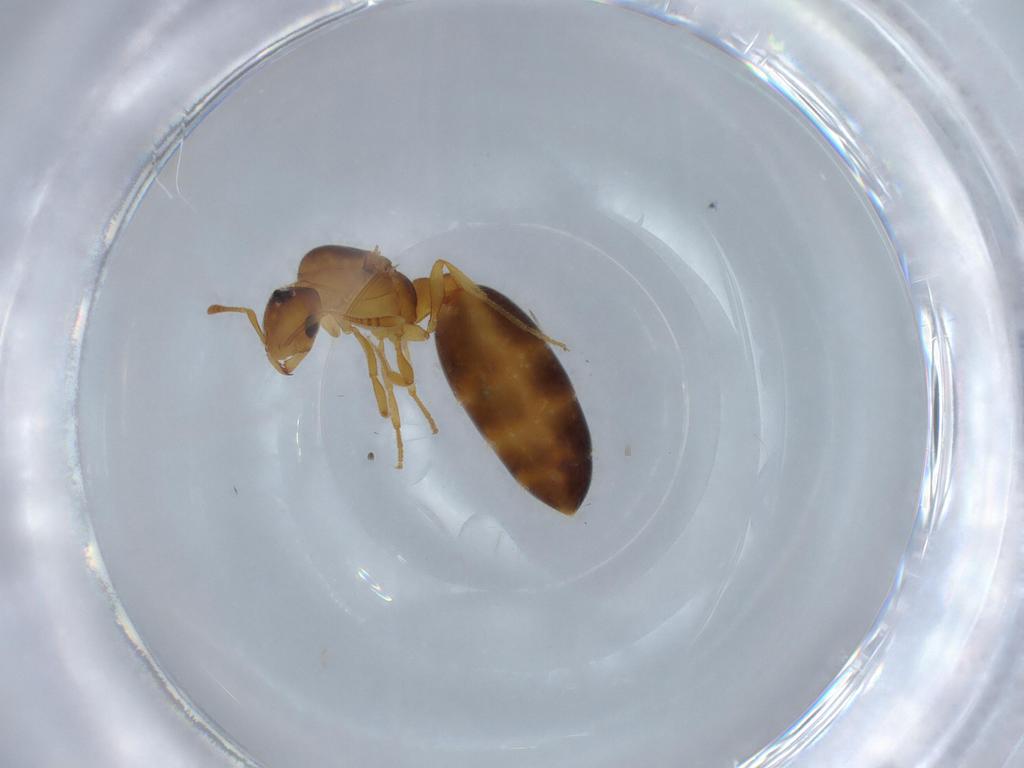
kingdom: Animalia
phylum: Arthropoda
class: Insecta
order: Hymenoptera
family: Formicidae
